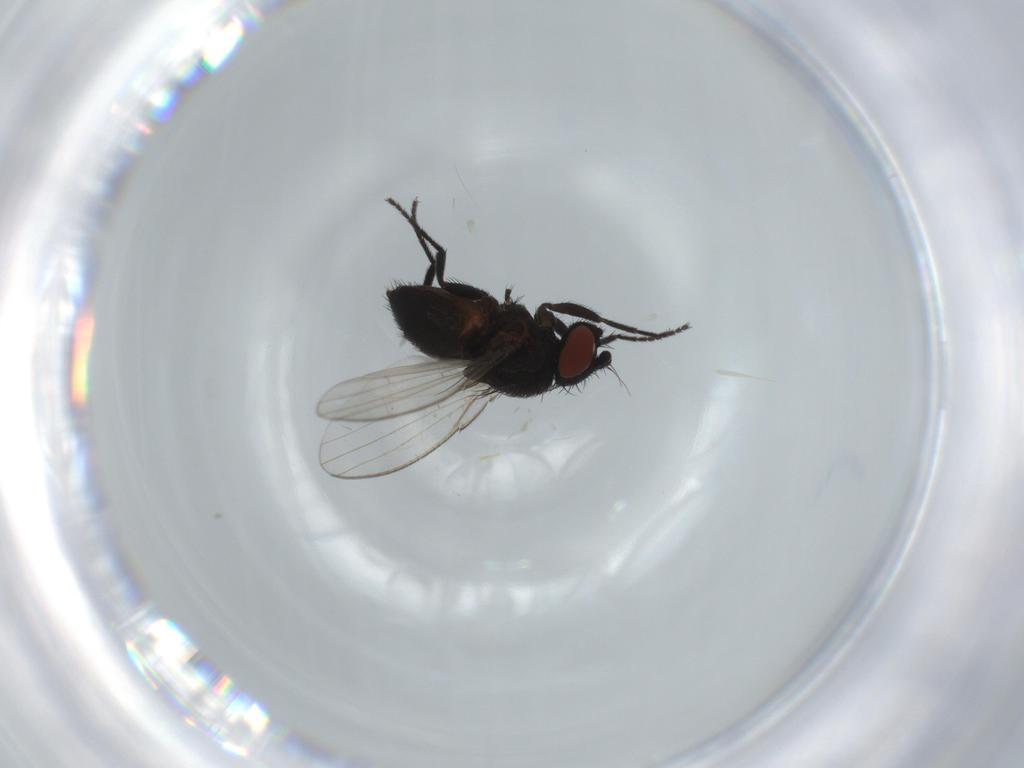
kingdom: Animalia
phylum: Arthropoda
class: Insecta
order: Diptera
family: Milichiidae
